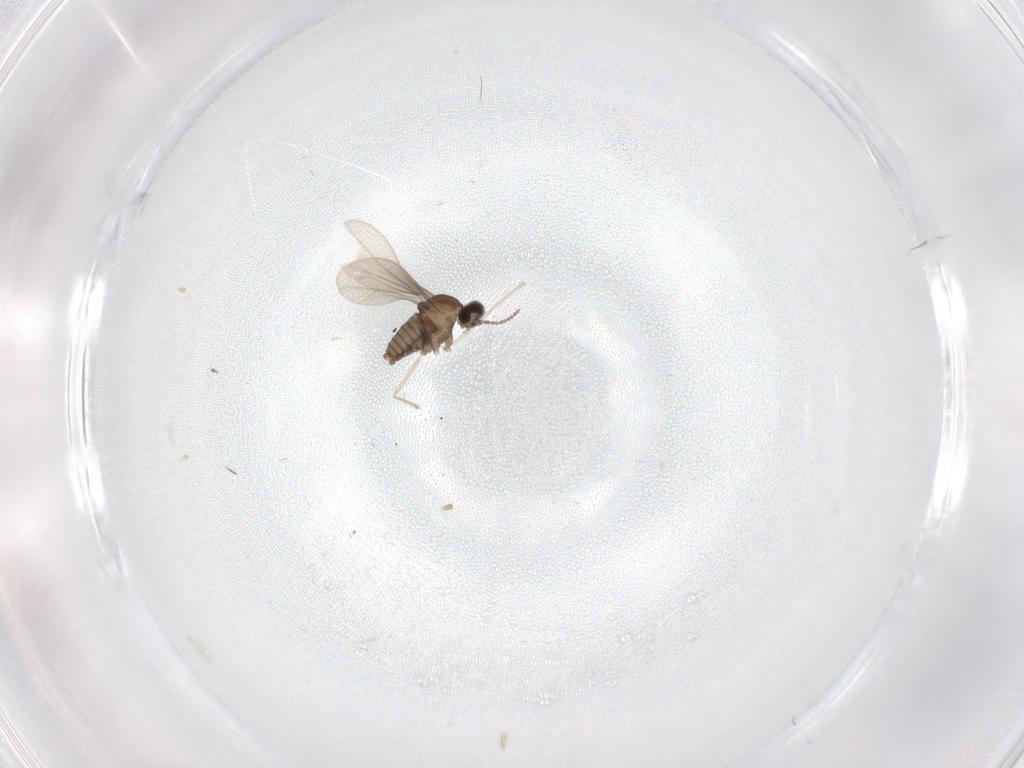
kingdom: Animalia
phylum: Arthropoda
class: Insecta
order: Diptera
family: Cecidomyiidae
